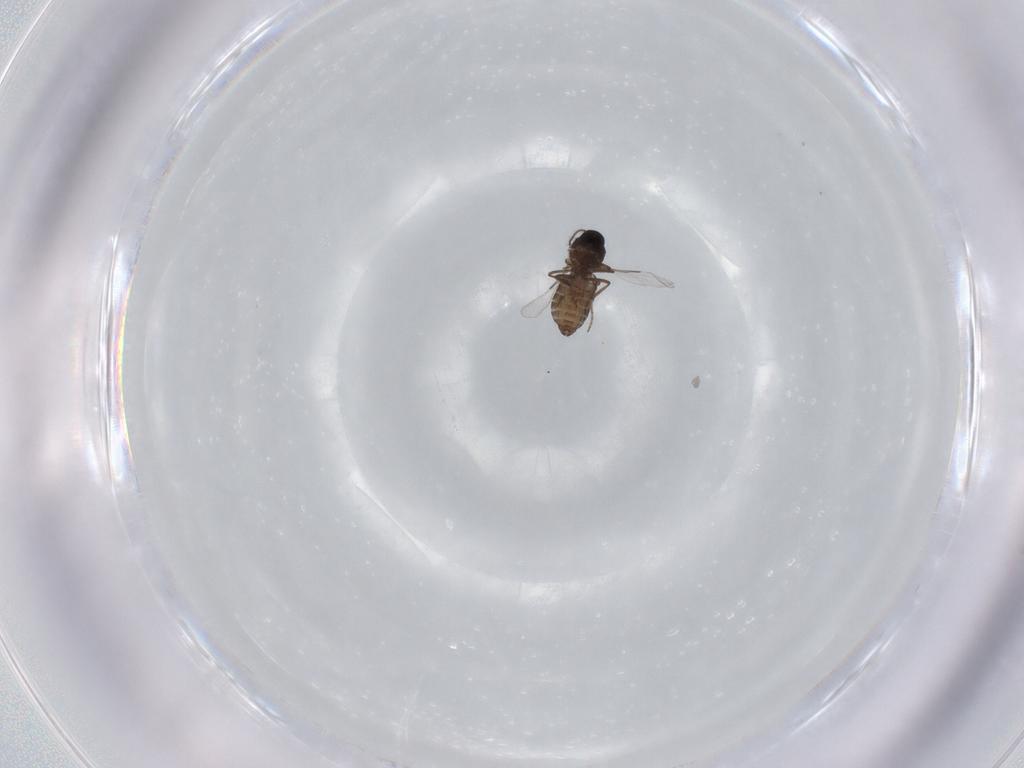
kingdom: Animalia
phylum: Arthropoda
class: Insecta
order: Diptera
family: Ceratopogonidae
